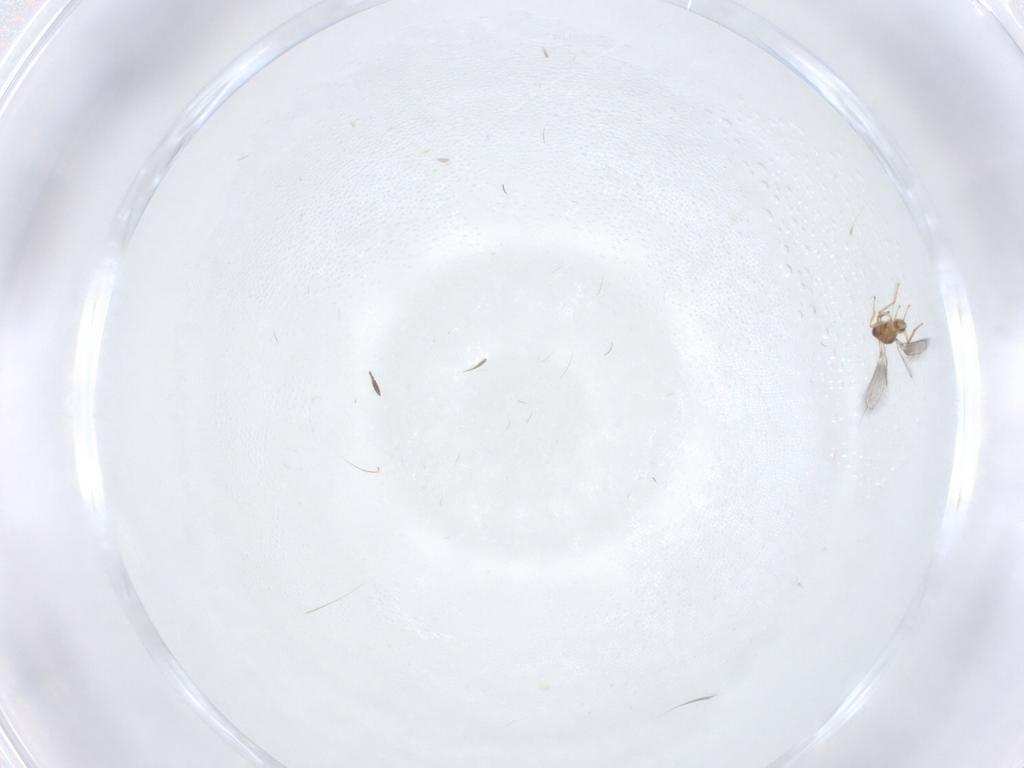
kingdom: Animalia
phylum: Arthropoda
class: Insecta
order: Hymenoptera
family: Mymaridae
